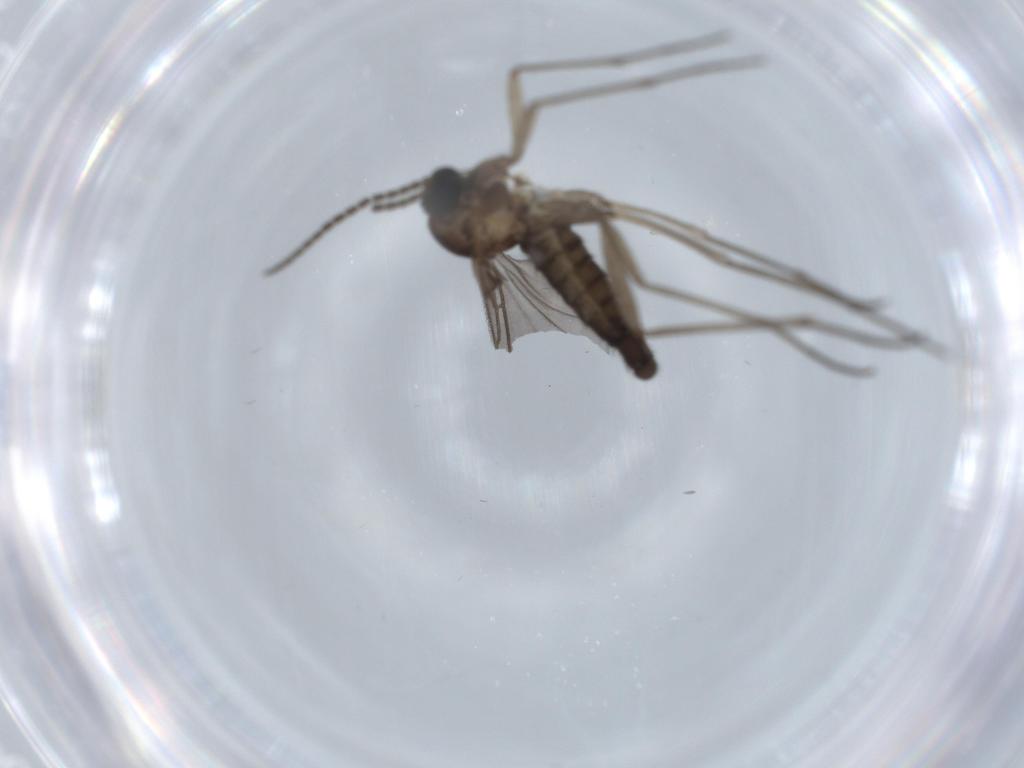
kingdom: Animalia
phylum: Arthropoda
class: Insecta
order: Diptera
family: Sciaridae
